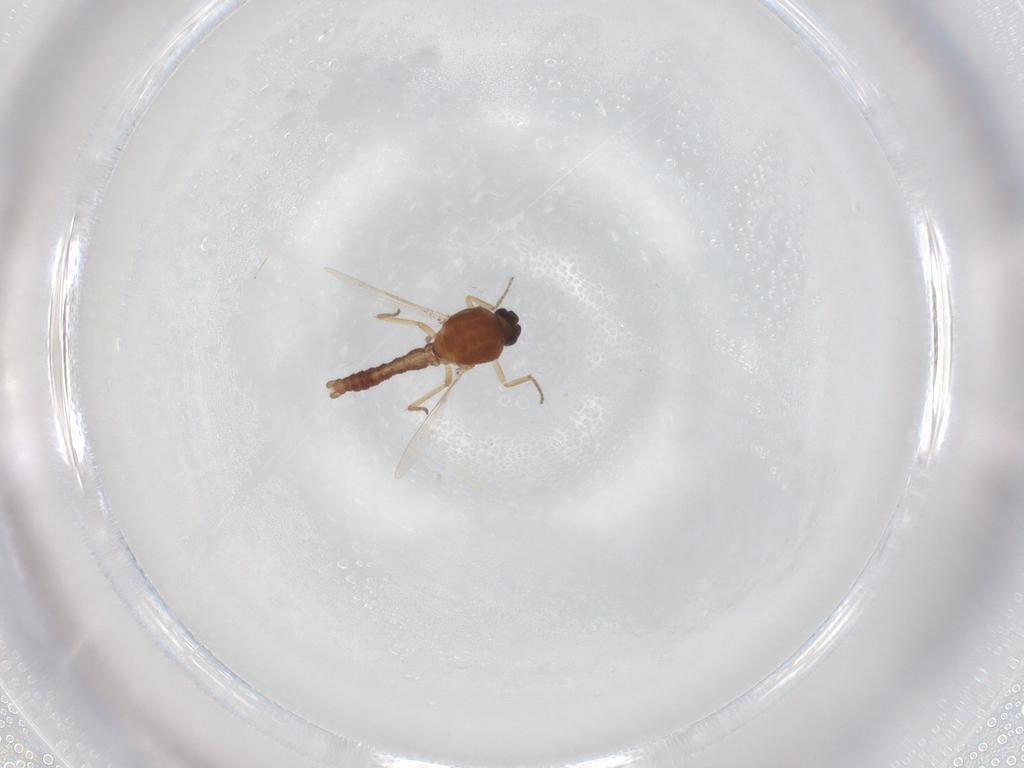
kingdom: Animalia
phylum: Arthropoda
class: Insecta
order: Diptera
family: Ceratopogonidae
